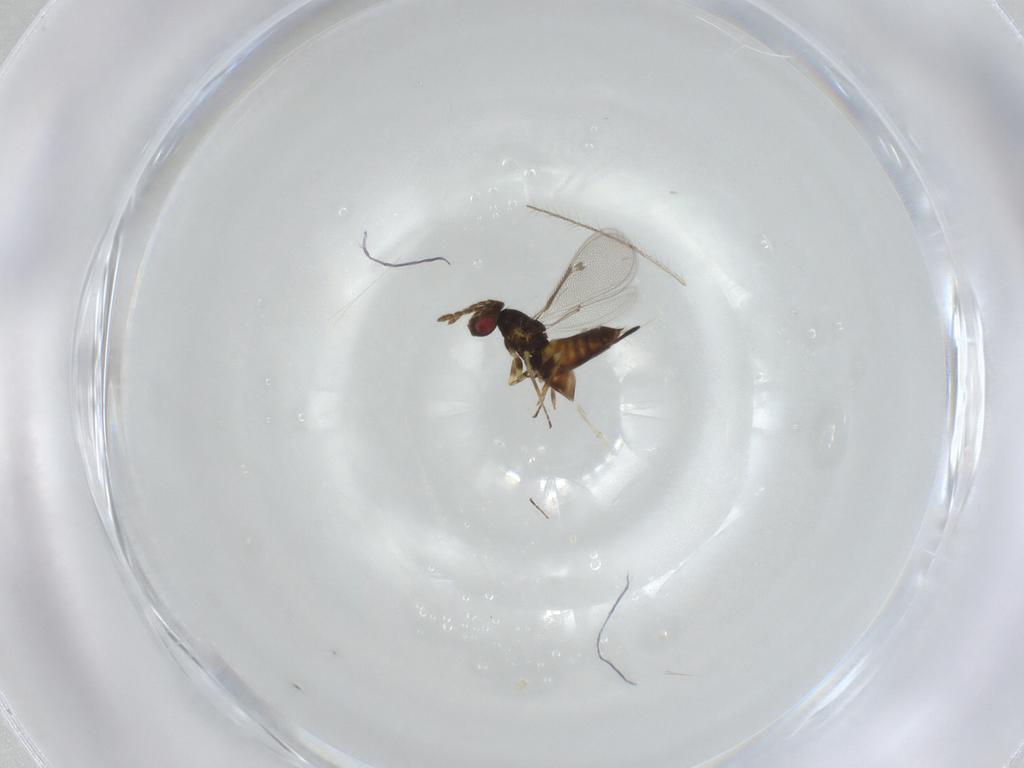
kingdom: Animalia
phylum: Arthropoda
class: Insecta
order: Hymenoptera
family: Eulophidae
